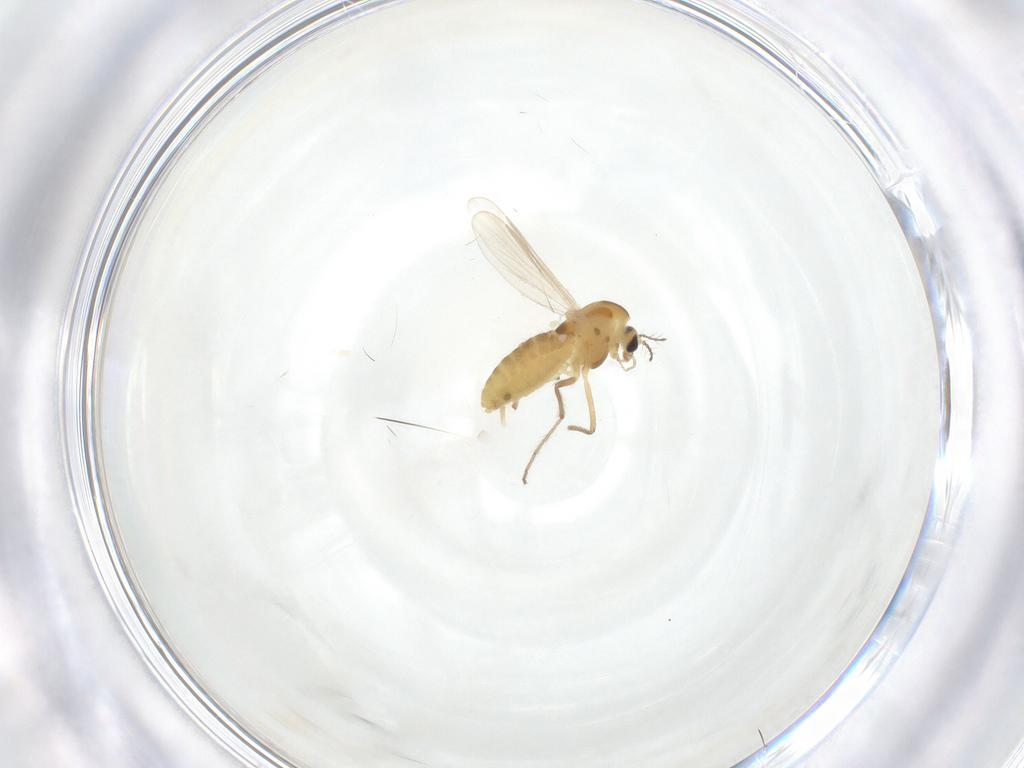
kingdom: Animalia
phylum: Arthropoda
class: Insecta
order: Diptera
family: Chironomidae
